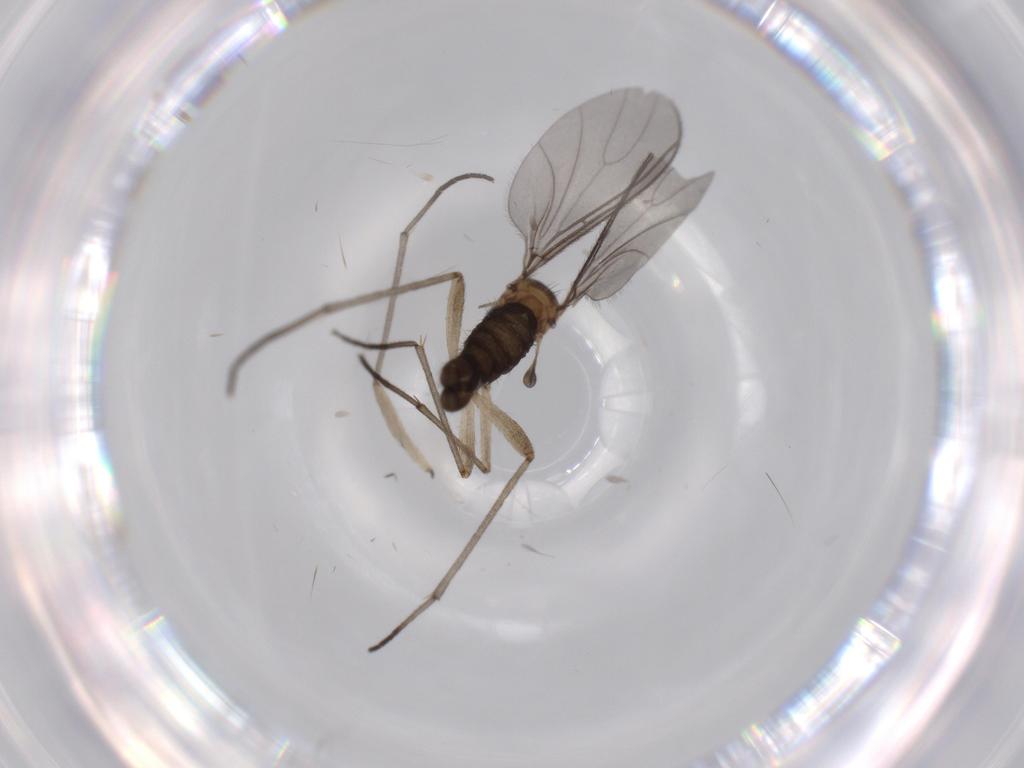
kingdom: Animalia
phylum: Arthropoda
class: Insecta
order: Diptera
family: Sciaridae
